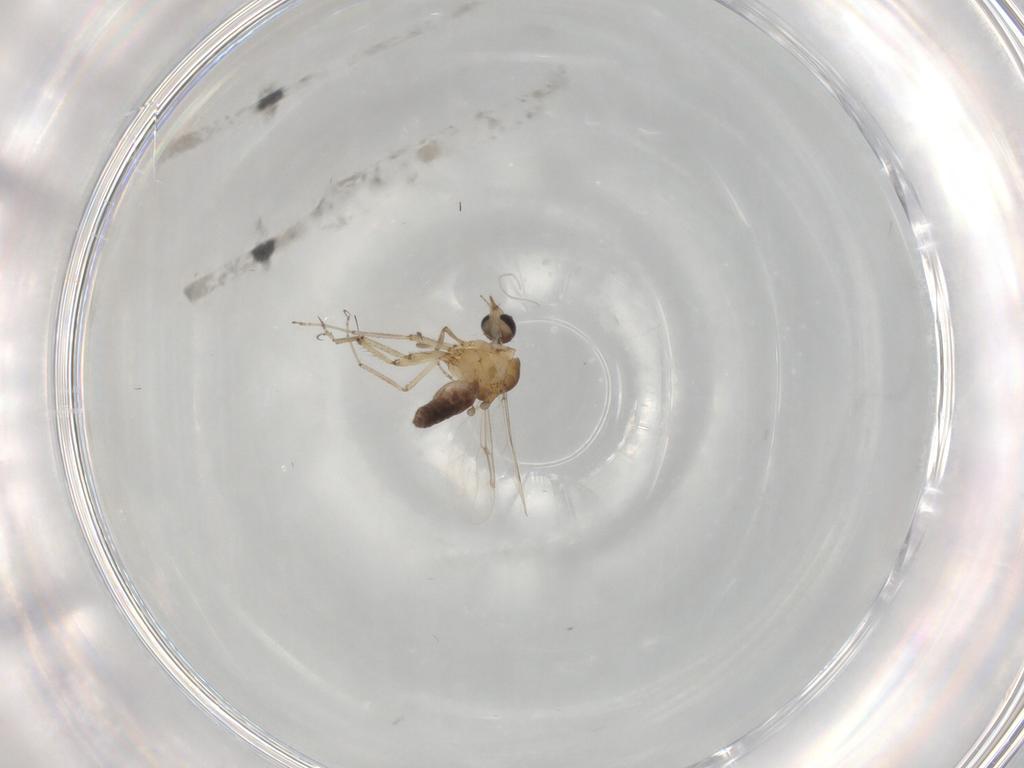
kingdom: Animalia
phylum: Arthropoda
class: Insecta
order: Diptera
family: Ceratopogonidae
